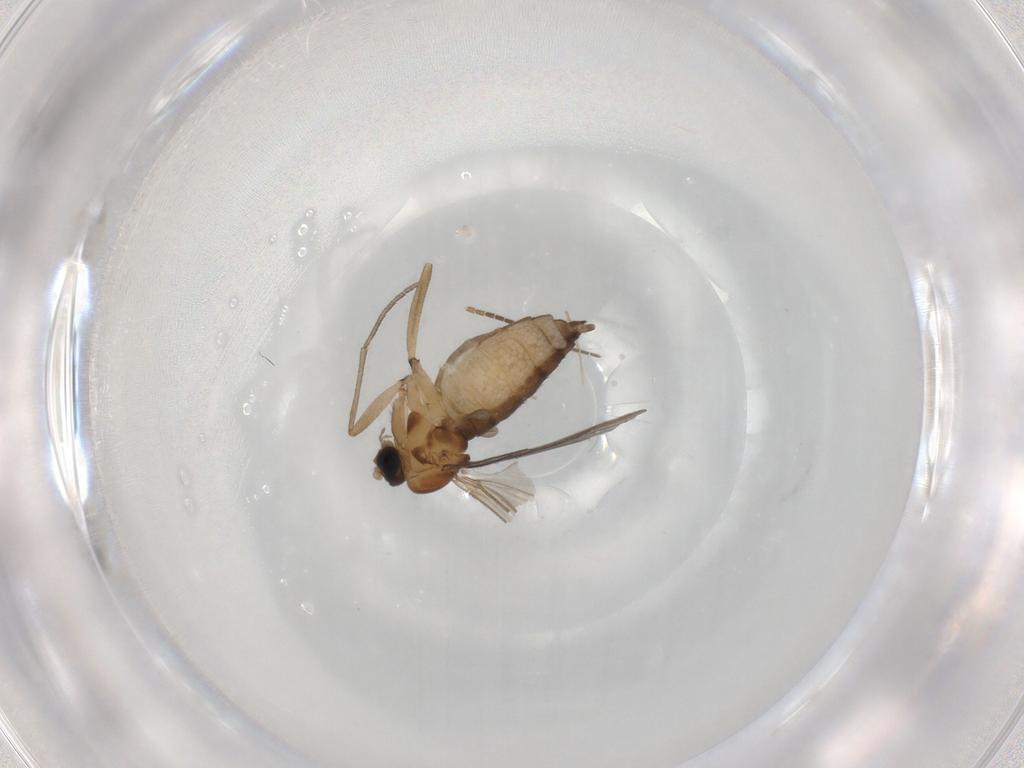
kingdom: Animalia
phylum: Arthropoda
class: Insecta
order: Diptera
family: Sciaridae
